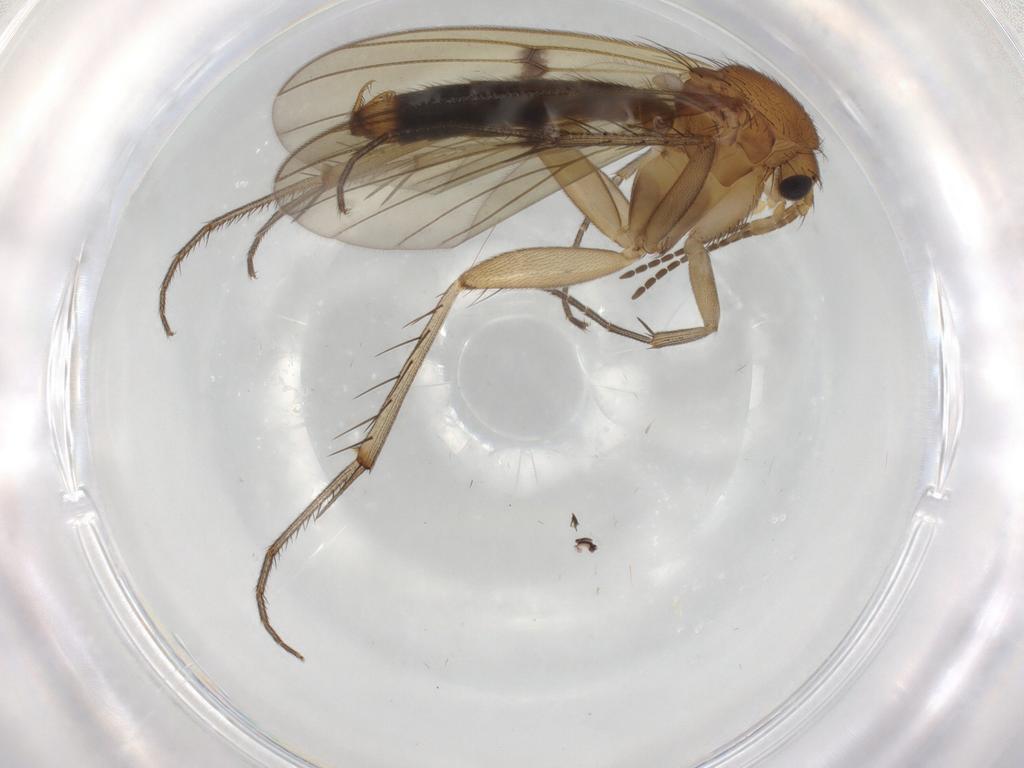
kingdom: Animalia
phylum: Arthropoda
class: Insecta
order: Diptera
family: Phoridae
